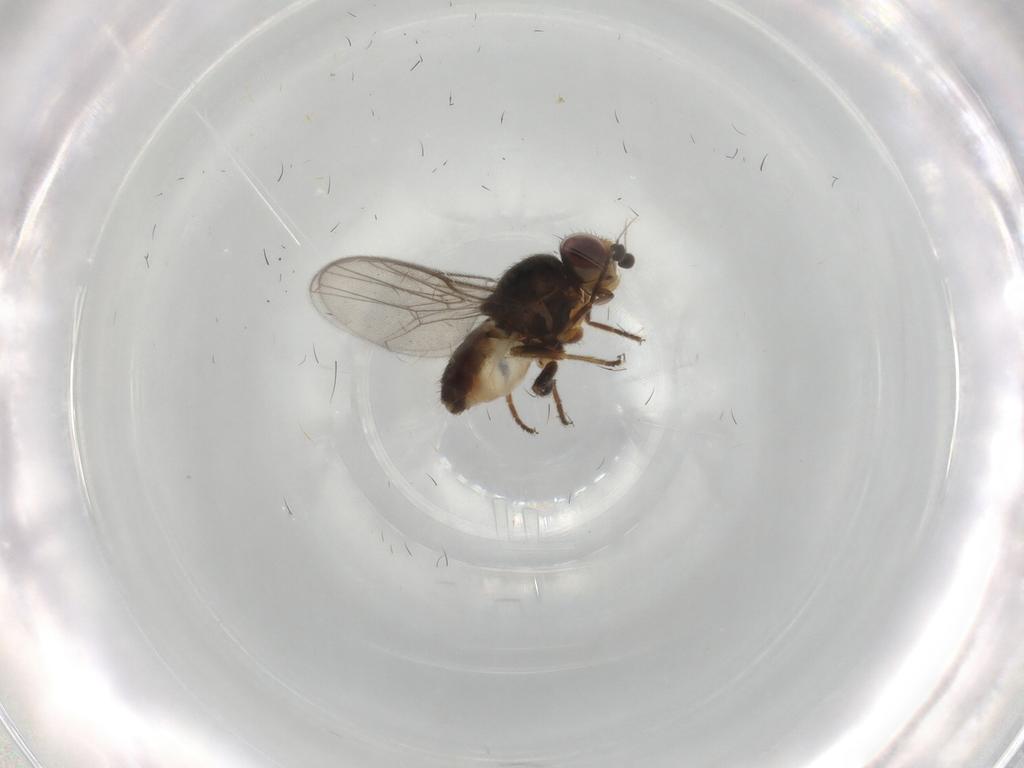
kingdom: Animalia
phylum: Arthropoda
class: Insecta
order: Diptera
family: Chloropidae
